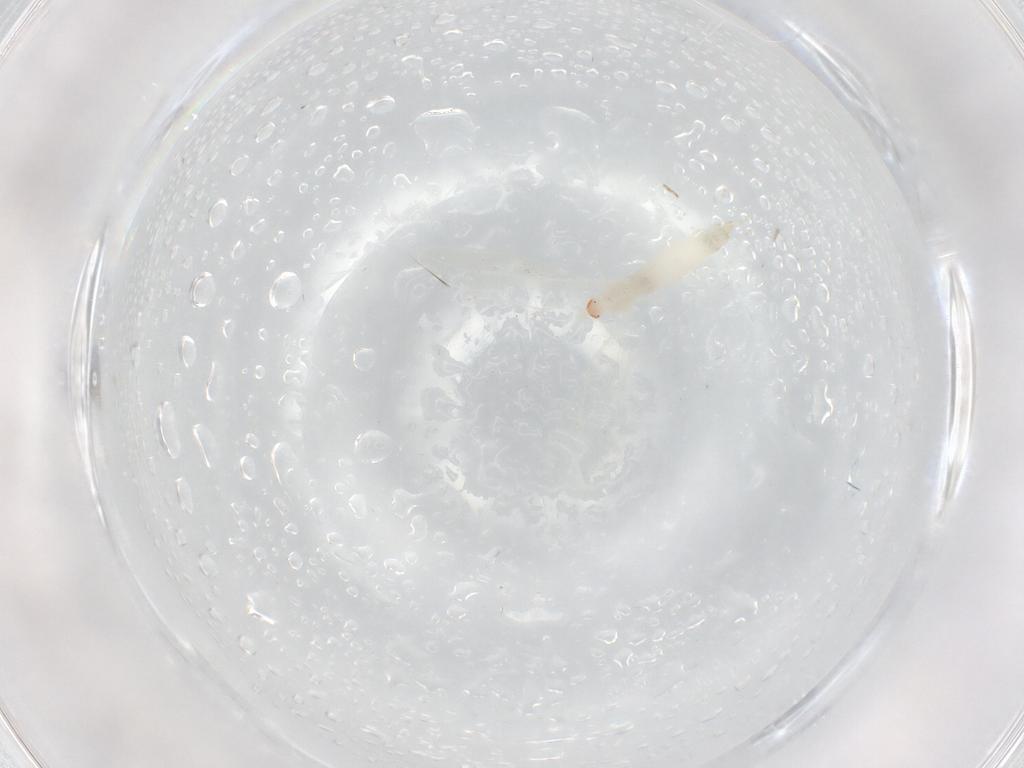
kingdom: Animalia
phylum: Arthropoda
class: Insecta
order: Diptera
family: Cecidomyiidae
